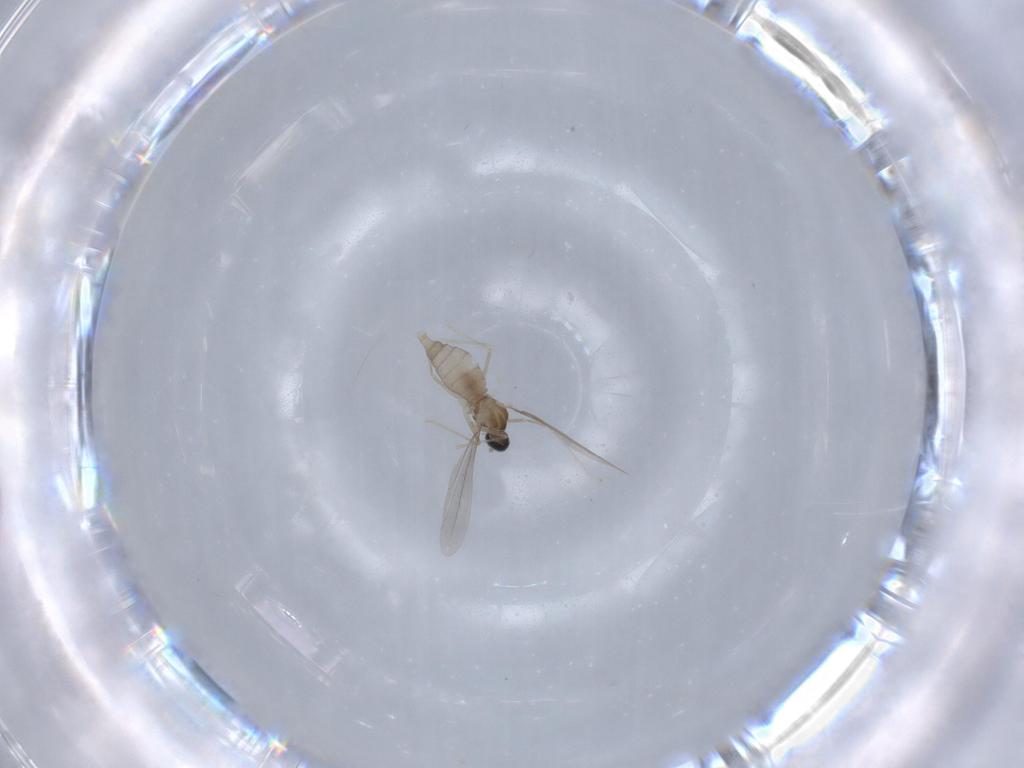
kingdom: Animalia
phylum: Arthropoda
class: Insecta
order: Diptera
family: Cecidomyiidae
